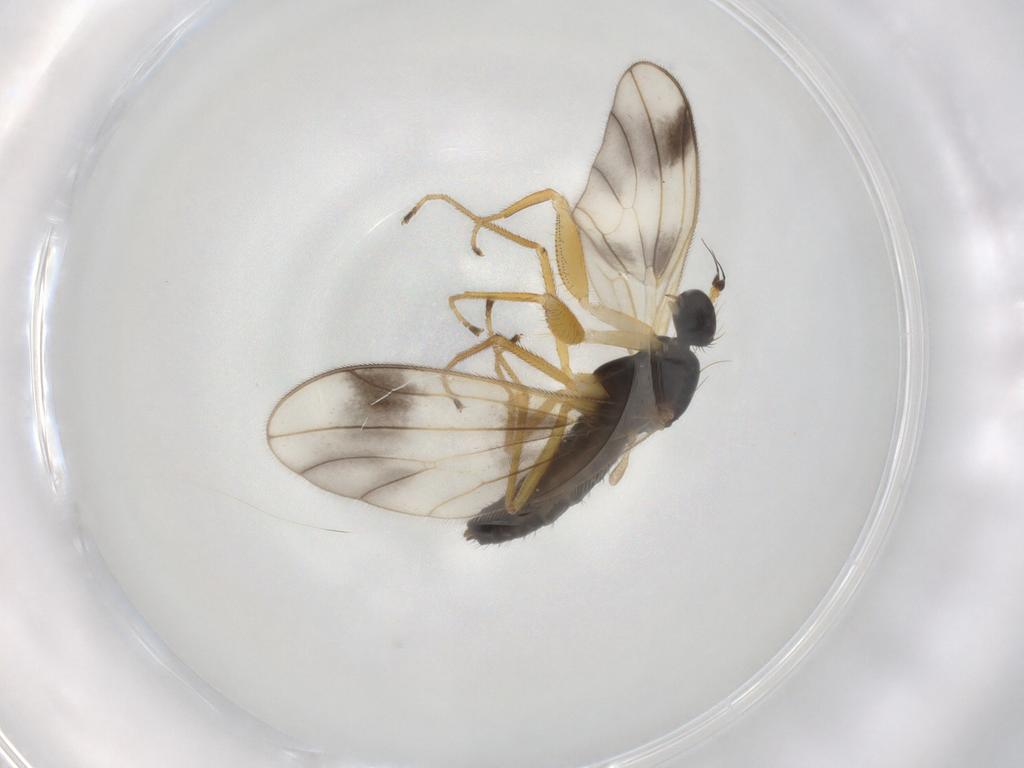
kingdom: Animalia
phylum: Arthropoda
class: Insecta
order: Diptera
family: Empididae
